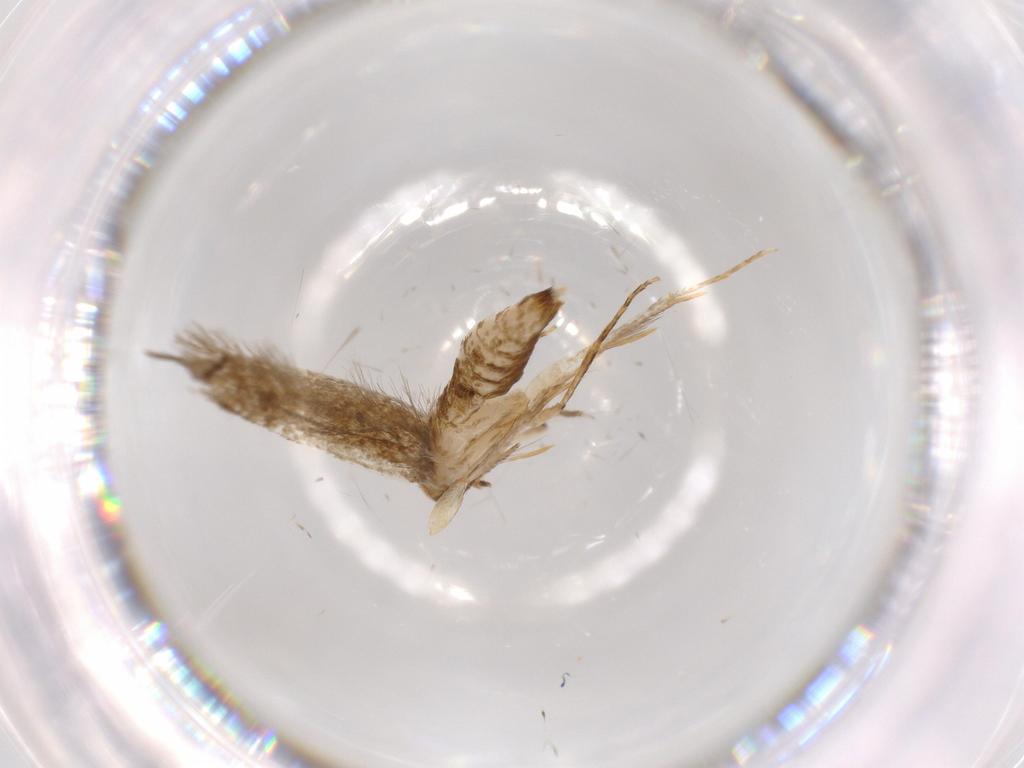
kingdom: Animalia
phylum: Arthropoda
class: Insecta
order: Lepidoptera
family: Tineidae
